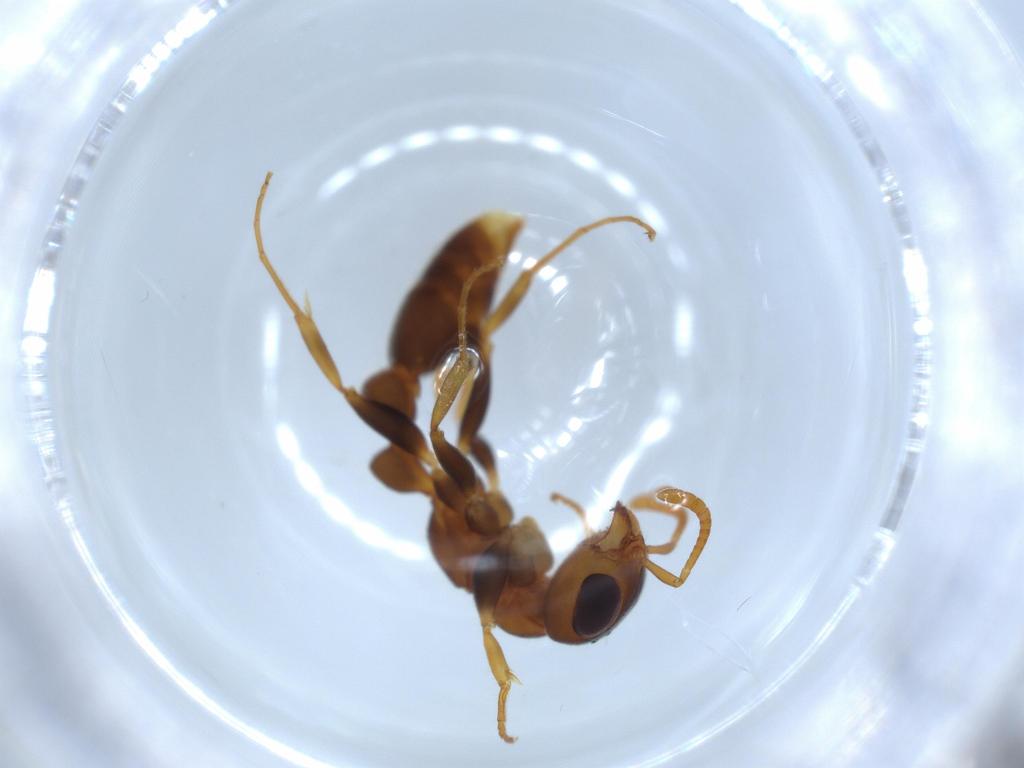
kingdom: Animalia
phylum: Arthropoda
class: Insecta
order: Hymenoptera
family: Formicidae
